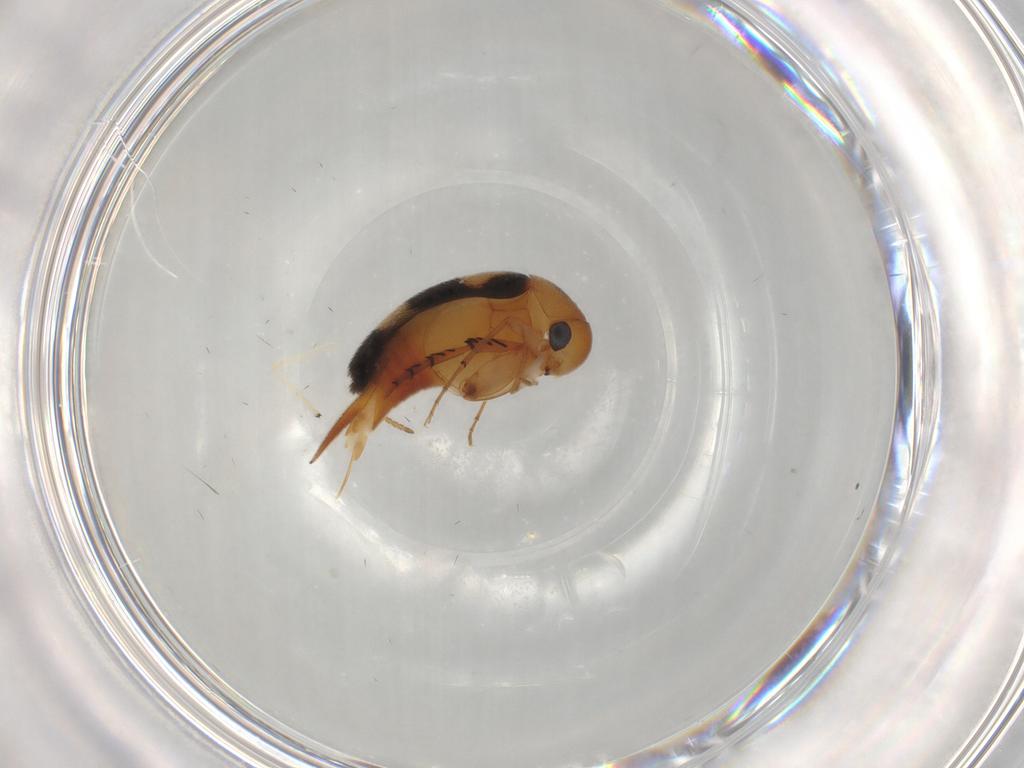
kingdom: Animalia
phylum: Arthropoda
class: Insecta
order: Coleoptera
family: Mordellidae
